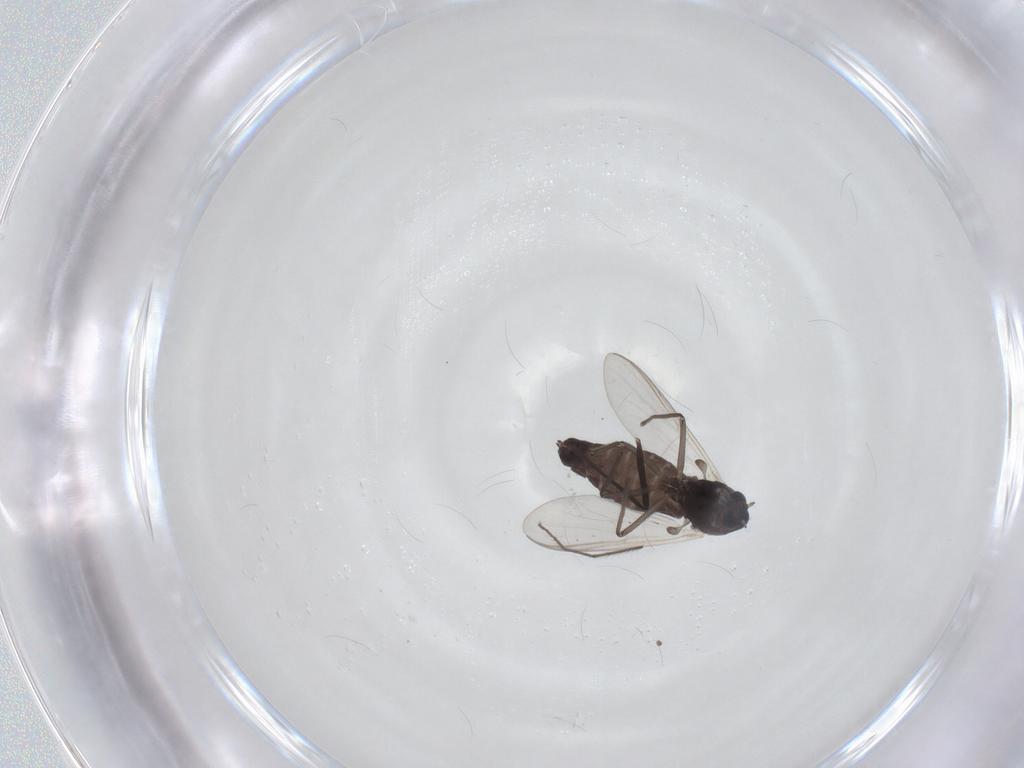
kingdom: Animalia
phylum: Arthropoda
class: Insecta
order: Diptera
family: Chironomidae
